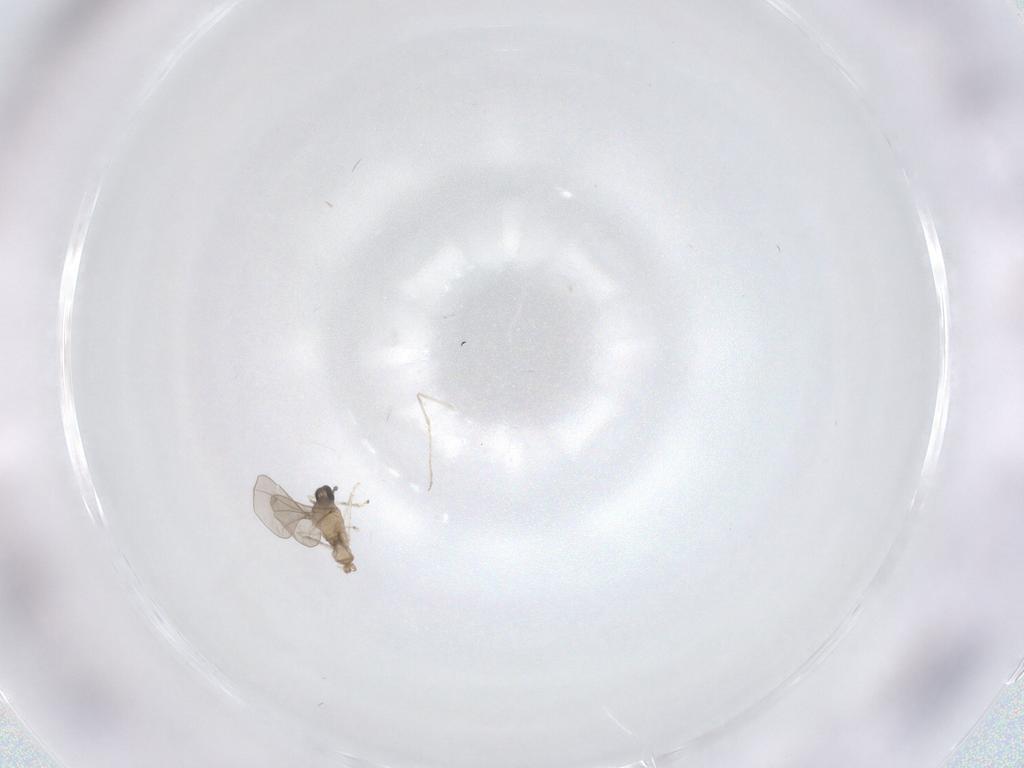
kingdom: Animalia
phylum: Arthropoda
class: Insecta
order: Diptera
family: Cecidomyiidae
